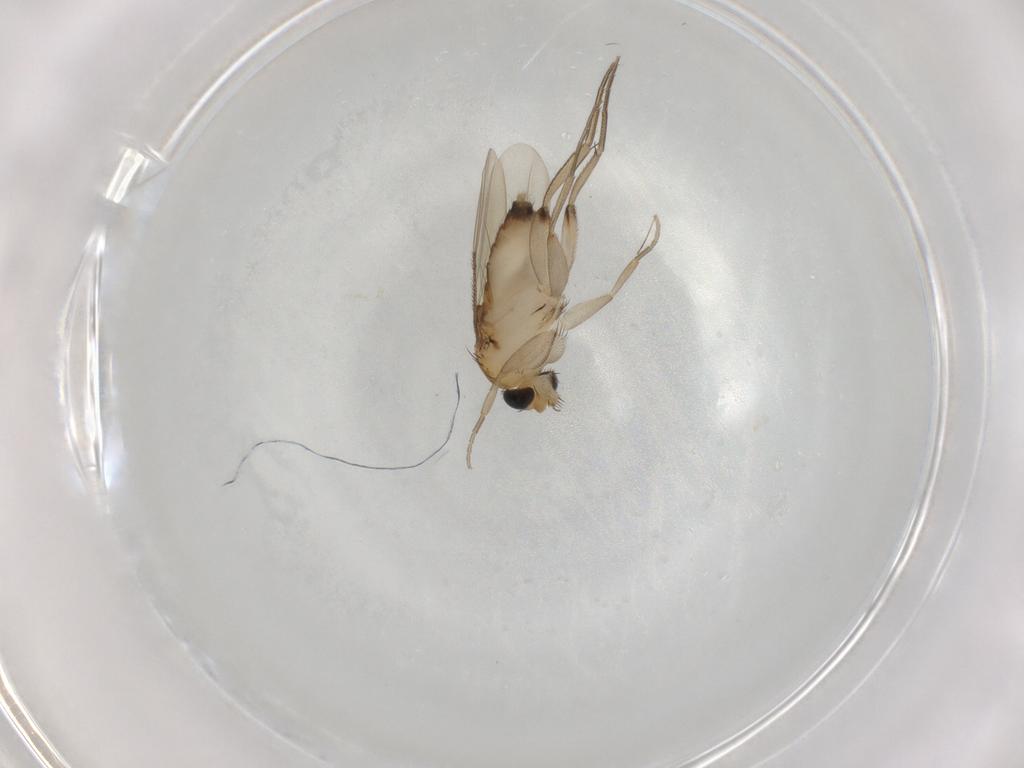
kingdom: Animalia
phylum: Arthropoda
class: Insecta
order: Diptera
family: Phoridae
